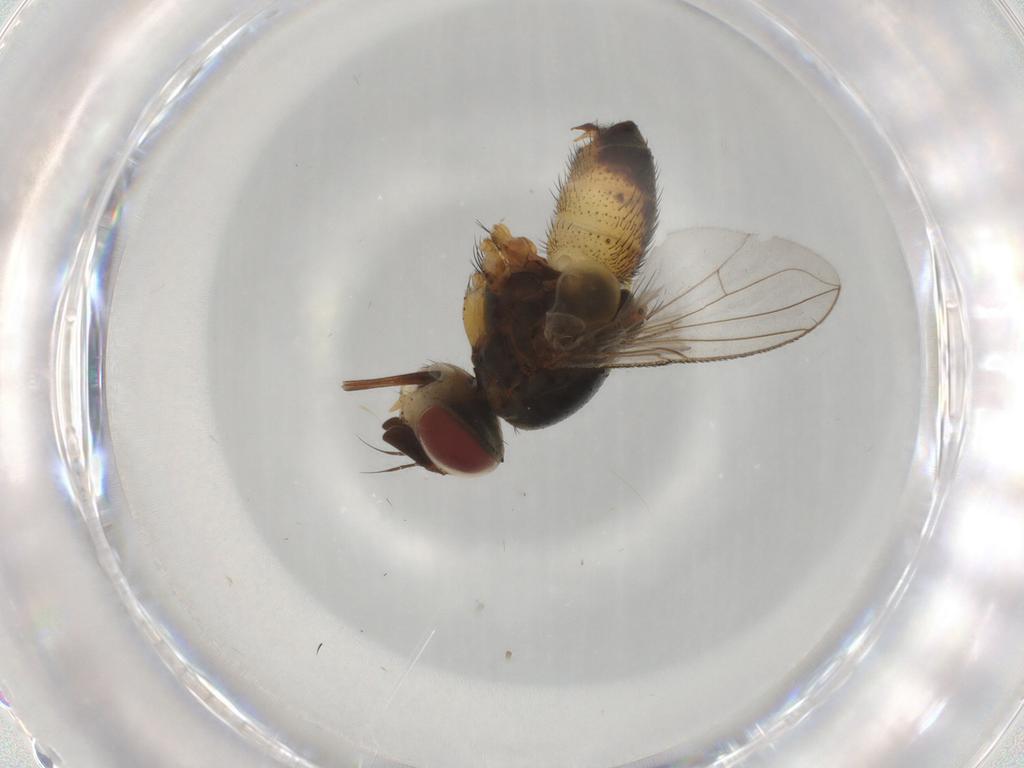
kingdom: Animalia
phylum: Arthropoda
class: Insecta
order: Diptera
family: Tachinidae
